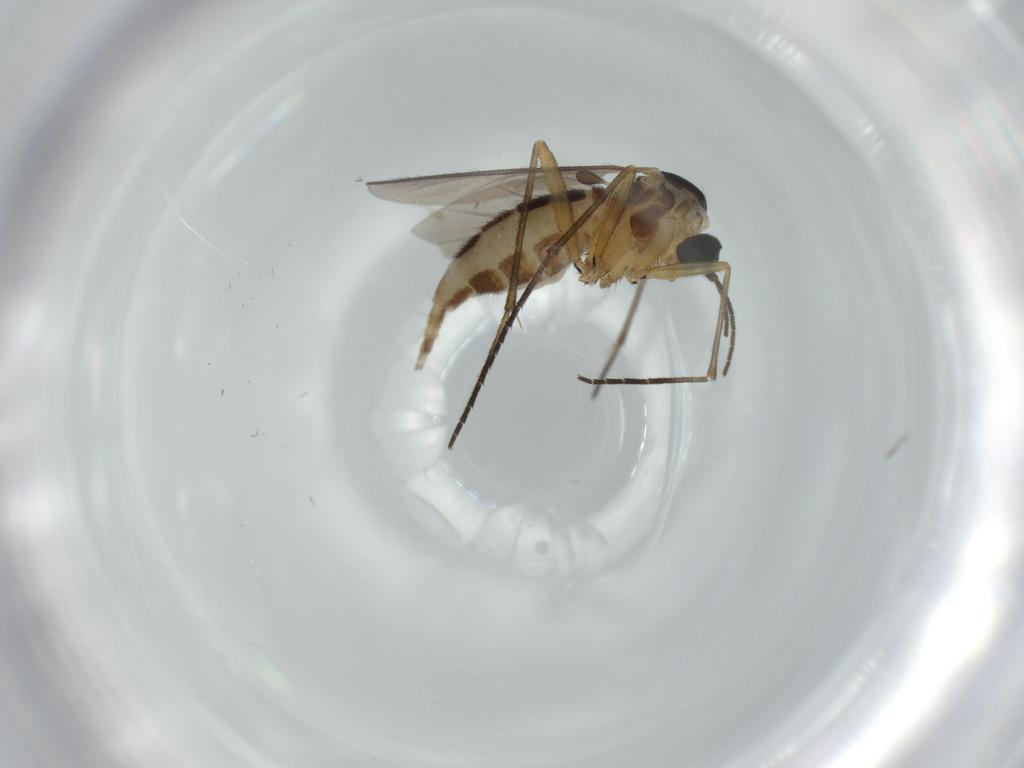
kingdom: Animalia
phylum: Arthropoda
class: Insecta
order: Diptera
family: Sciaridae
